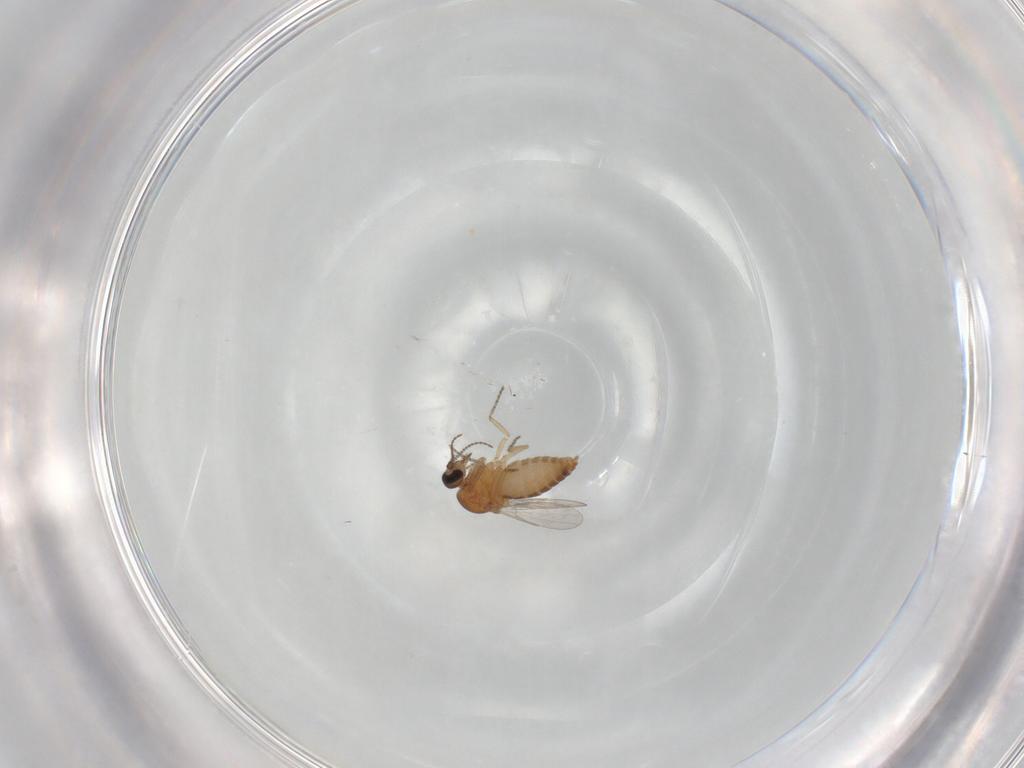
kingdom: Animalia
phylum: Arthropoda
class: Insecta
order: Diptera
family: Ceratopogonidae
